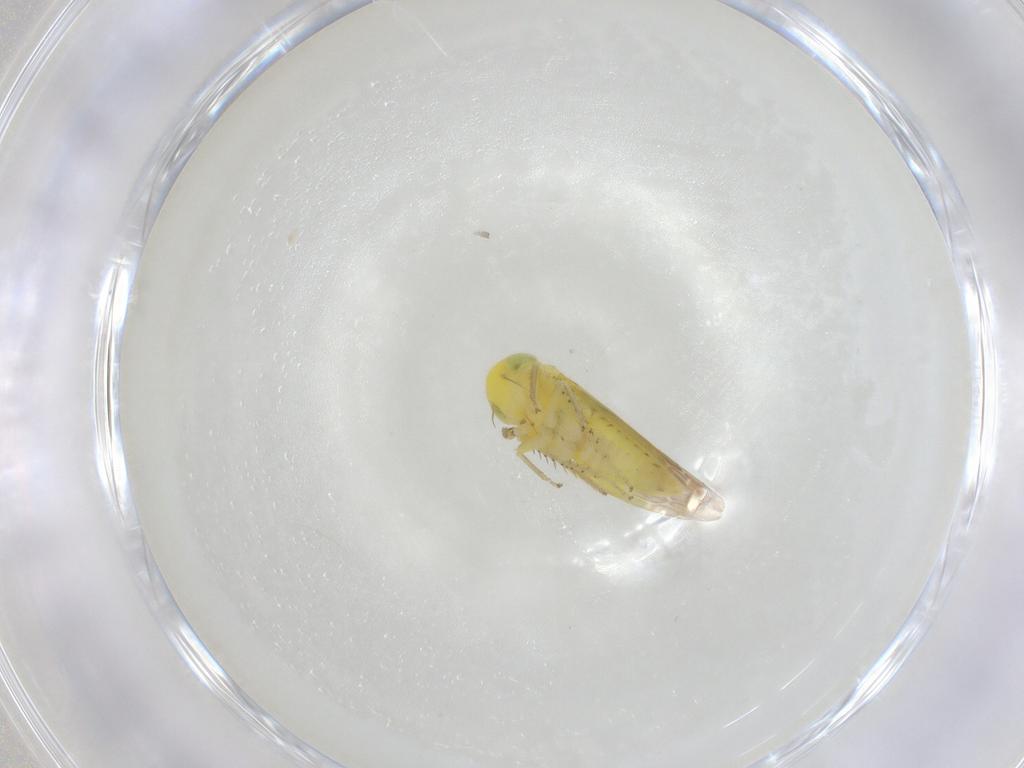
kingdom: Animalia
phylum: Arthropoda
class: Insecta
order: Hemiptera
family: Cicadellidae
